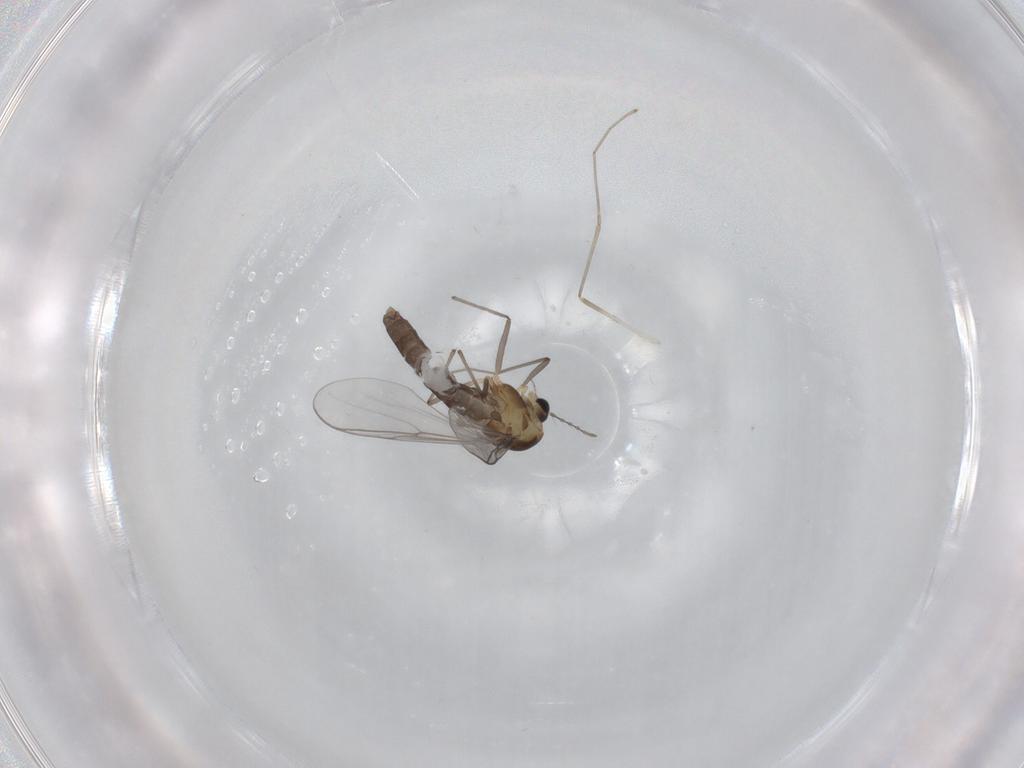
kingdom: Animalia
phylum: Arthropoda
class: Insecta
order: Diptera
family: Chironomidae
